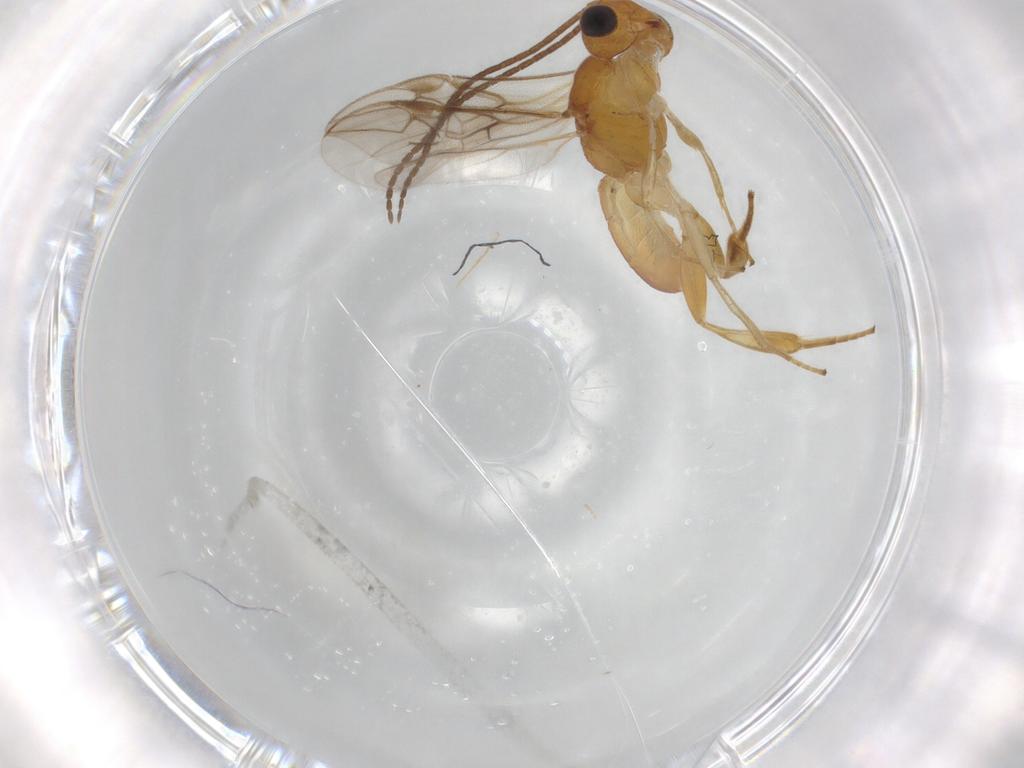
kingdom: Animalia
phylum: Arthropoda
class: Insecta
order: Hymenoptera
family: Braconidae
